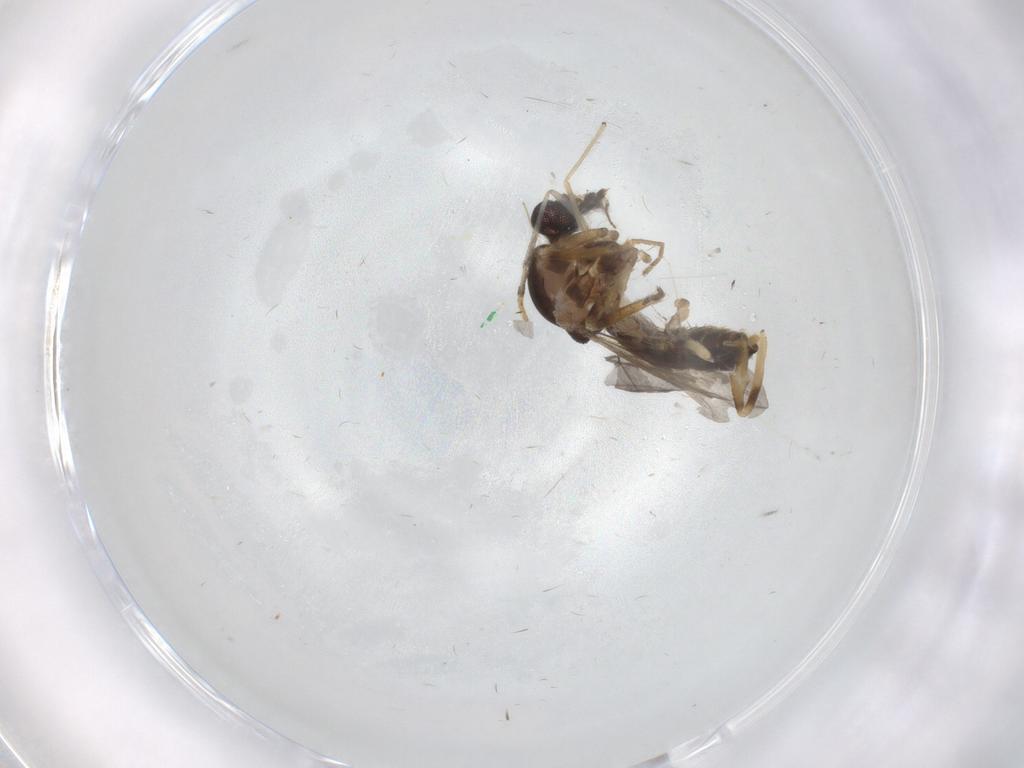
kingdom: Animalia
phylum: Arthropoda
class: Insecta
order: Diptera
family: Ceratopogonidae
